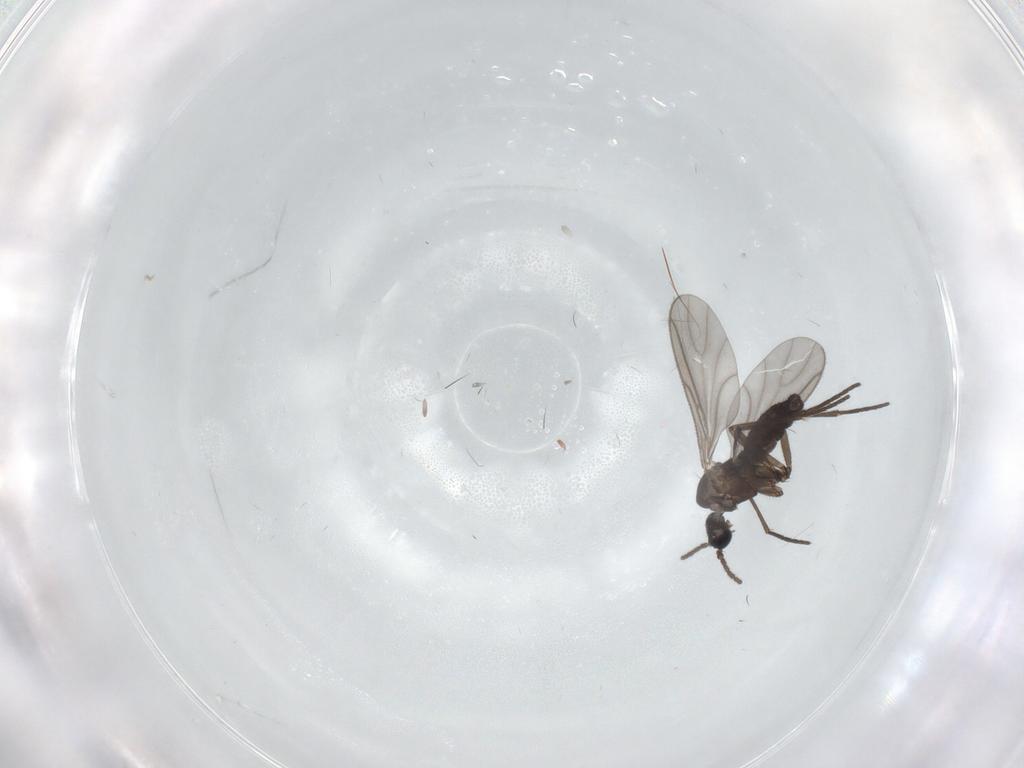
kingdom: Animalia
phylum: Arthropoda
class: Insecta
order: Diptera
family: Sciaridae
